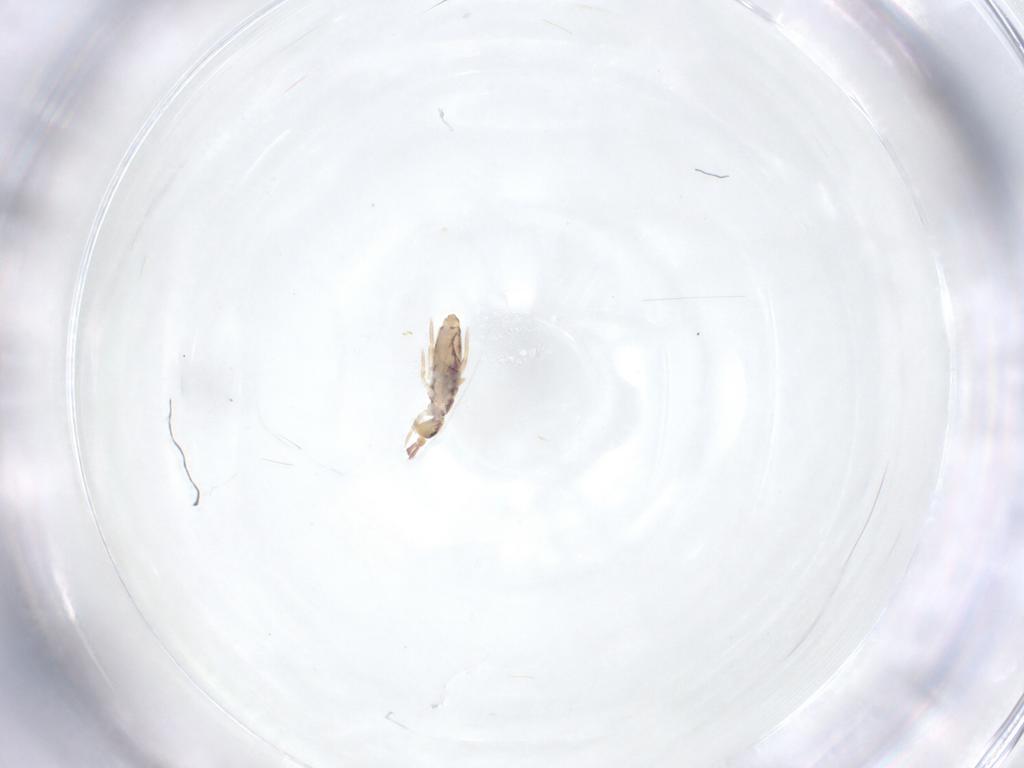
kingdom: Animalia
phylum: Arthropoda
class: Collembola
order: Entomobryomorpha
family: Entomobryidae
